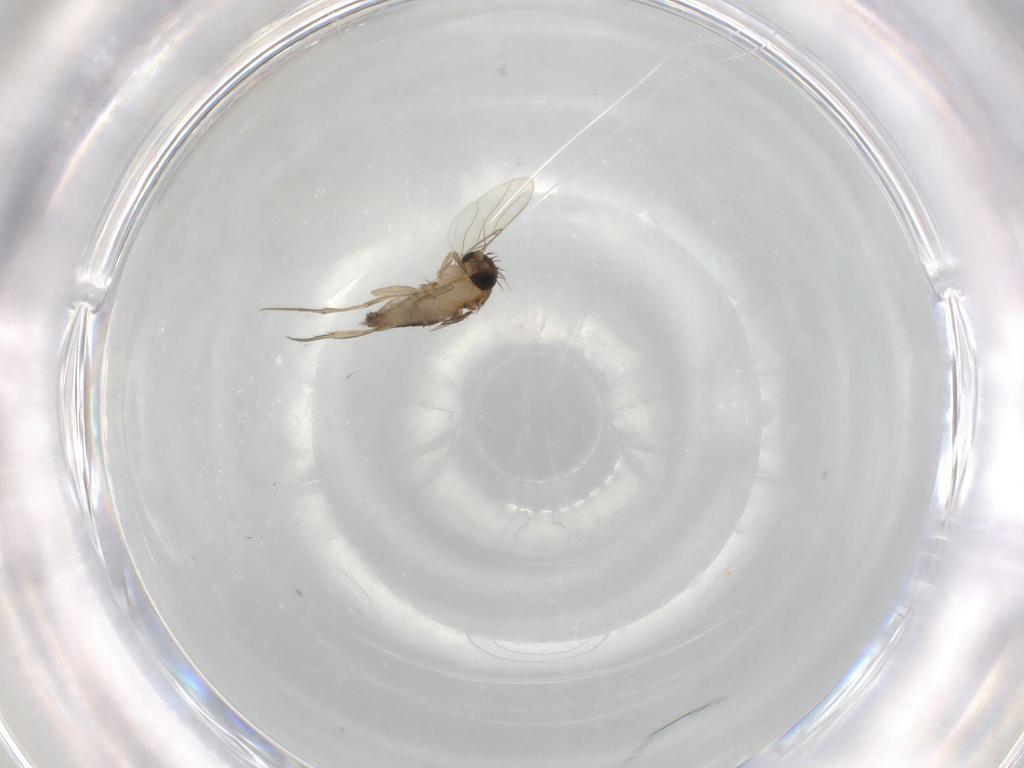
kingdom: Animalia
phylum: Arthropoda
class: Insecta
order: Diptera
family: Phoridae
